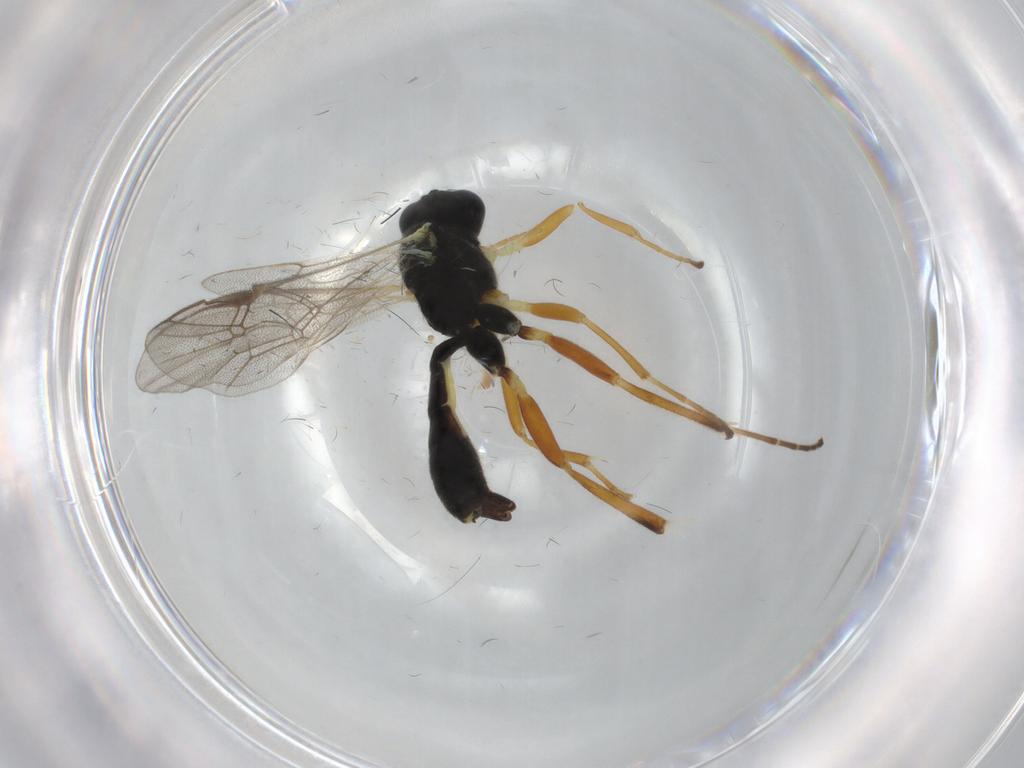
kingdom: Animalia
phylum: Arthropoda
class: Insecta
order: Hymenoptera
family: Ichneumonidae
